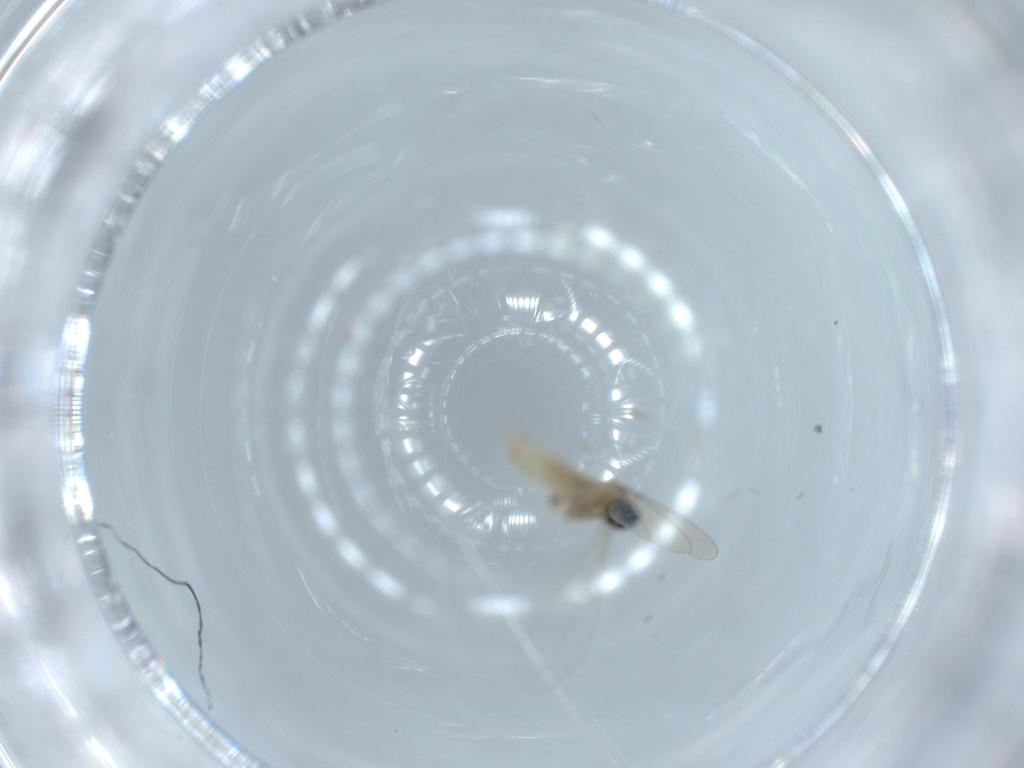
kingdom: Animalia
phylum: Arthropoda
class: Insecta
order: Diptera
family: Cecidomyiidae
